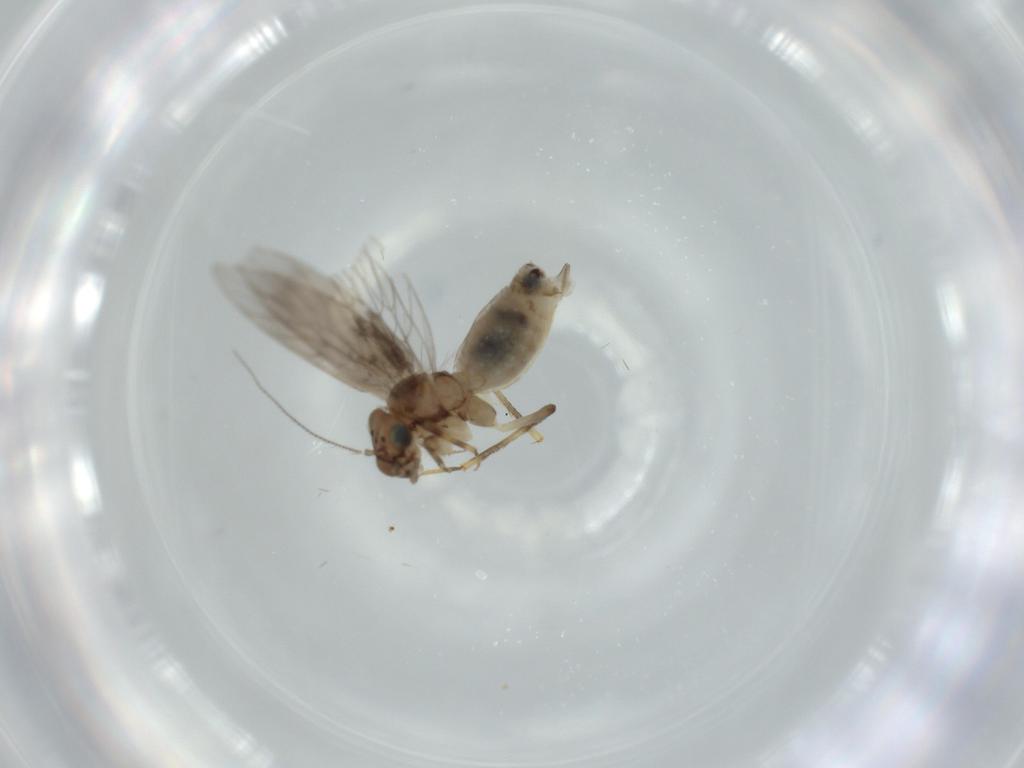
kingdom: Animalia
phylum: Arthropoda
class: Insecta
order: Psocodea
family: Lepidopsocidae
